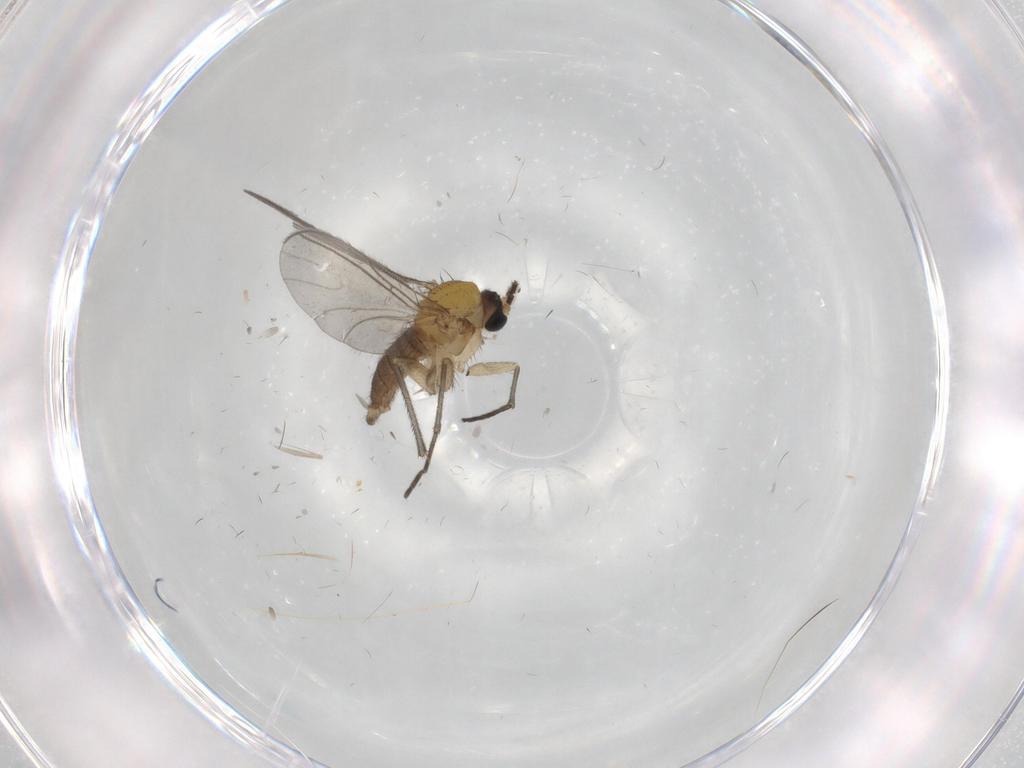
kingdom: Animalia
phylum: Arthropoda
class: Insecta
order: Diptera
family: Sciaridae
